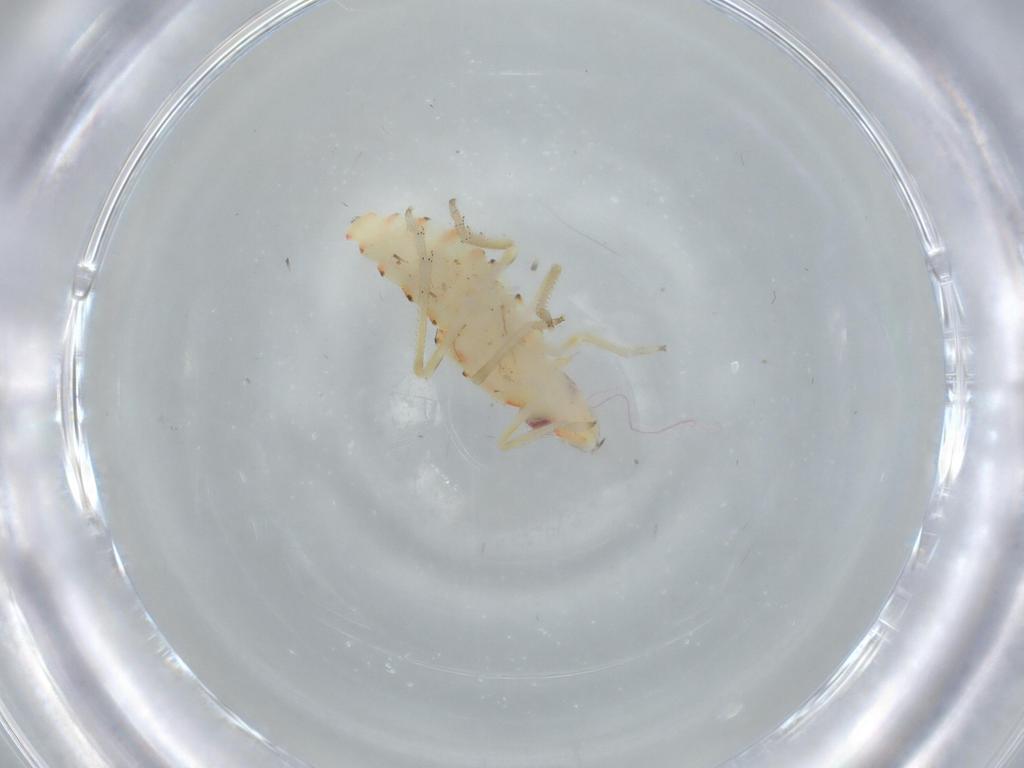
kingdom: Animalia
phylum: Arthropoda
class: Insecta
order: Hemiptera
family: Tropiduchidae
